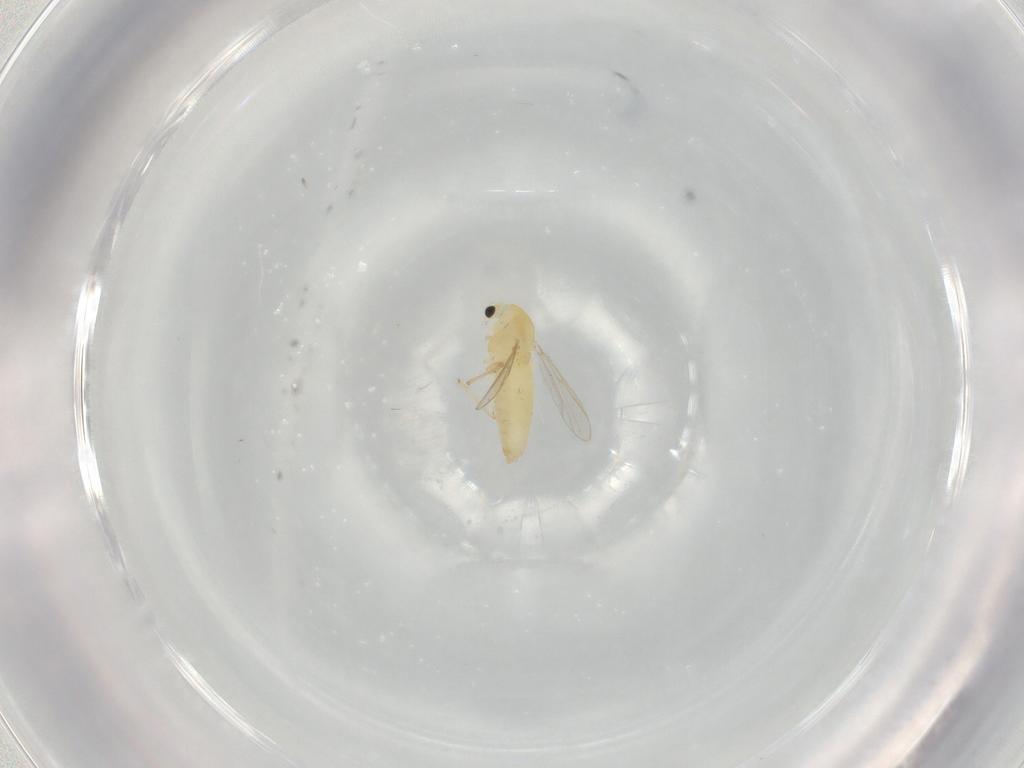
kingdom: Animalia
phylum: Arthropoda
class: Insecta
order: Diptera
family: Chironomidae
